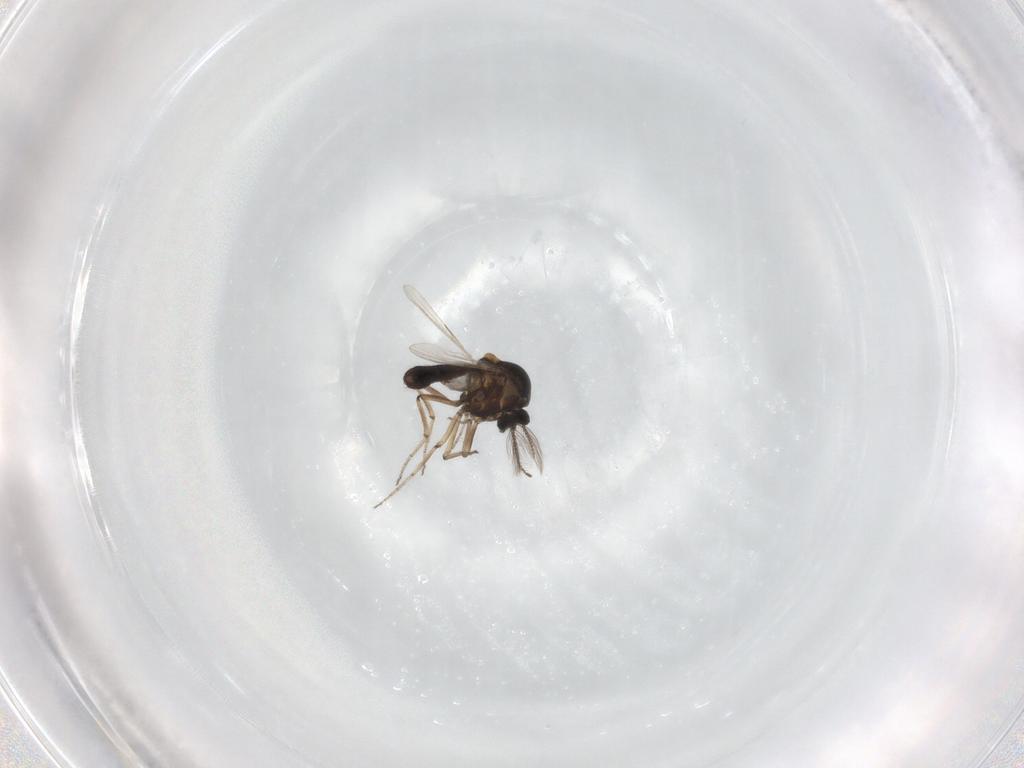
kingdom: Animalia
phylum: Arthropoda
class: Insecta
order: Diptera
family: Ceratopogonidae
